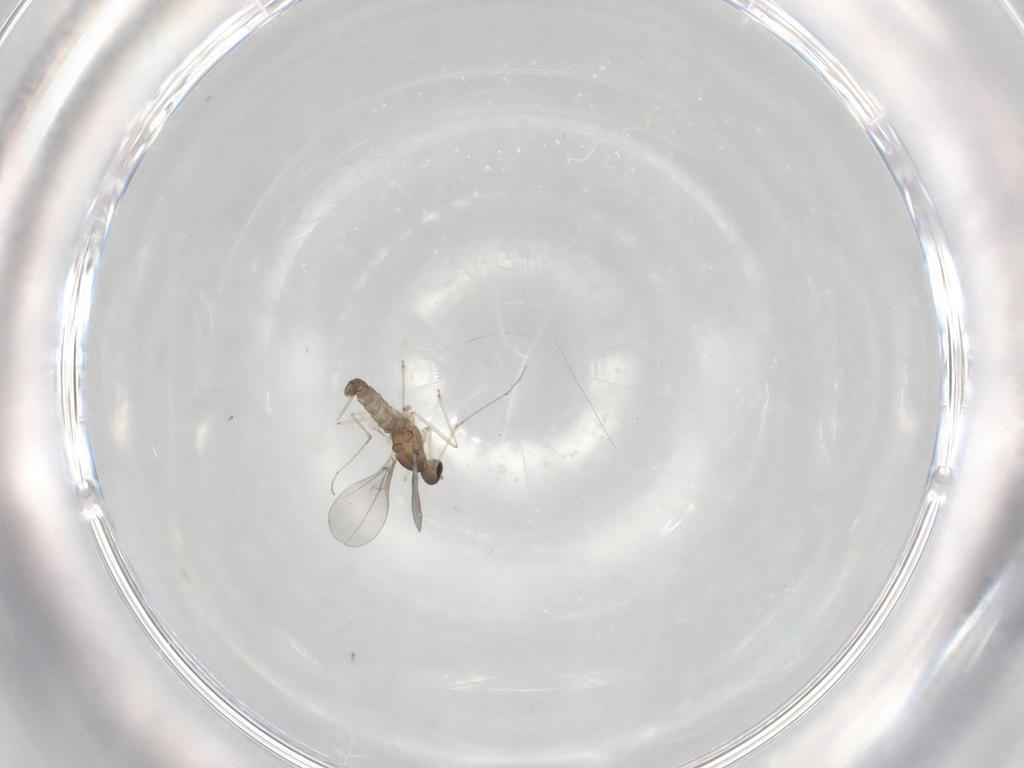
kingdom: Animalia
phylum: Arthropoda
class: Insecta
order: Diptera
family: Cecidomyiidae
